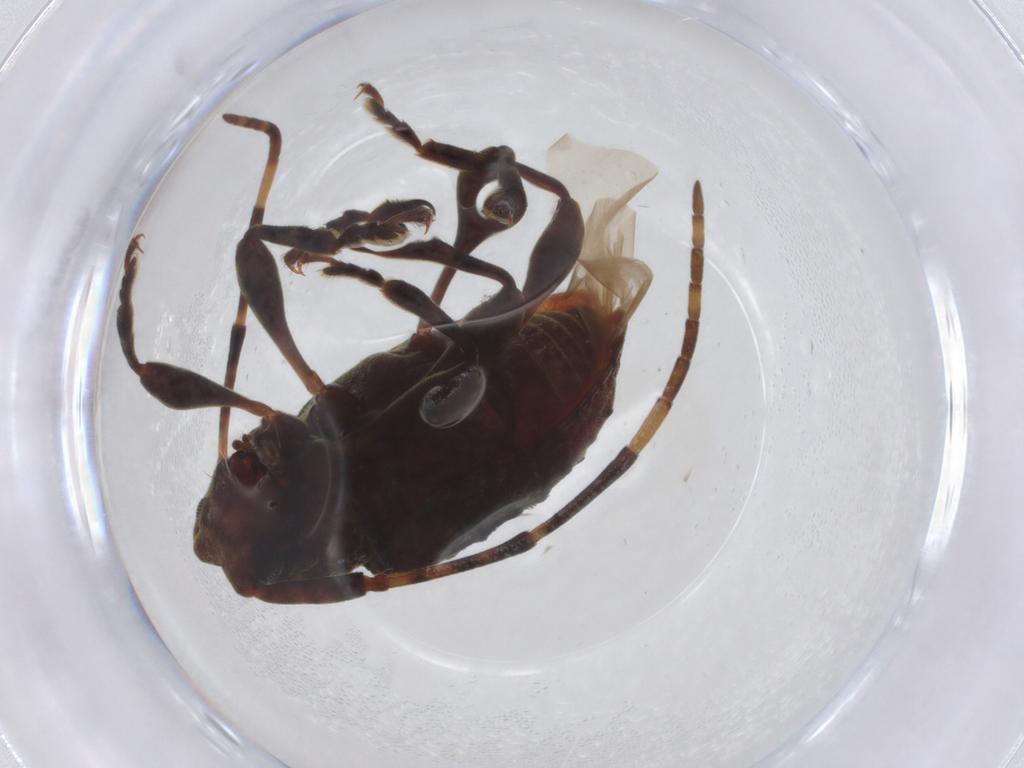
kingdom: Animalia
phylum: Arthropoda
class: Insecta
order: Coleoptera
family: Cerambycidae
